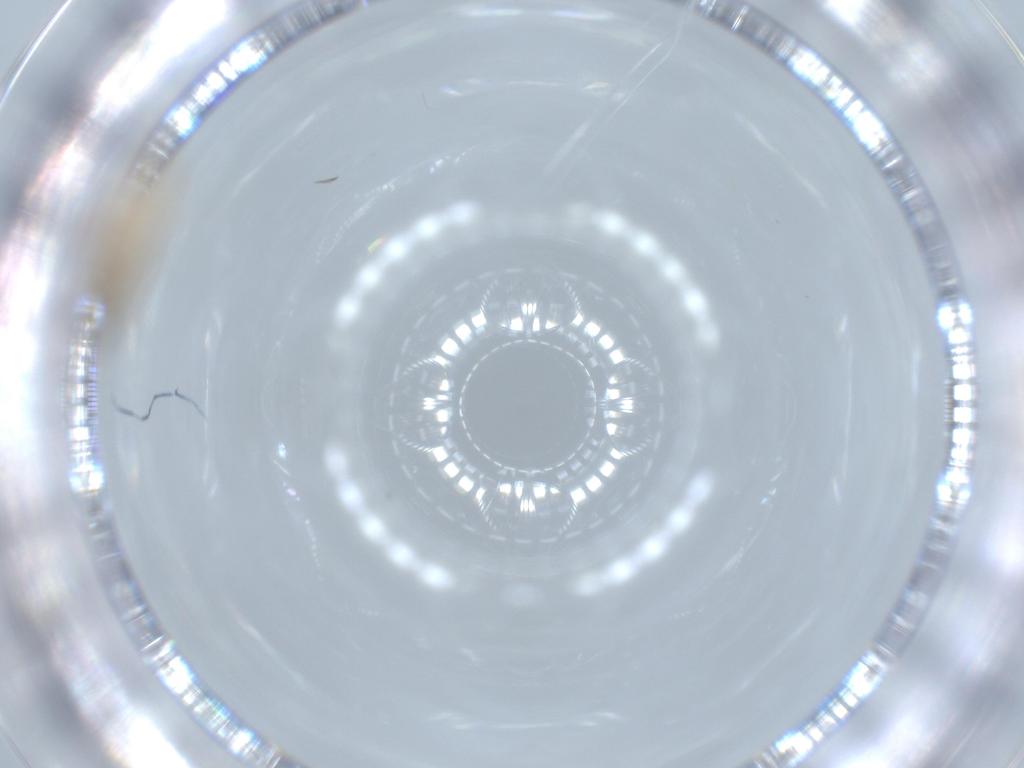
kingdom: Animalia
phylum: Arthropoda
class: Insecta
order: Diptera
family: Cecidomyiidae
